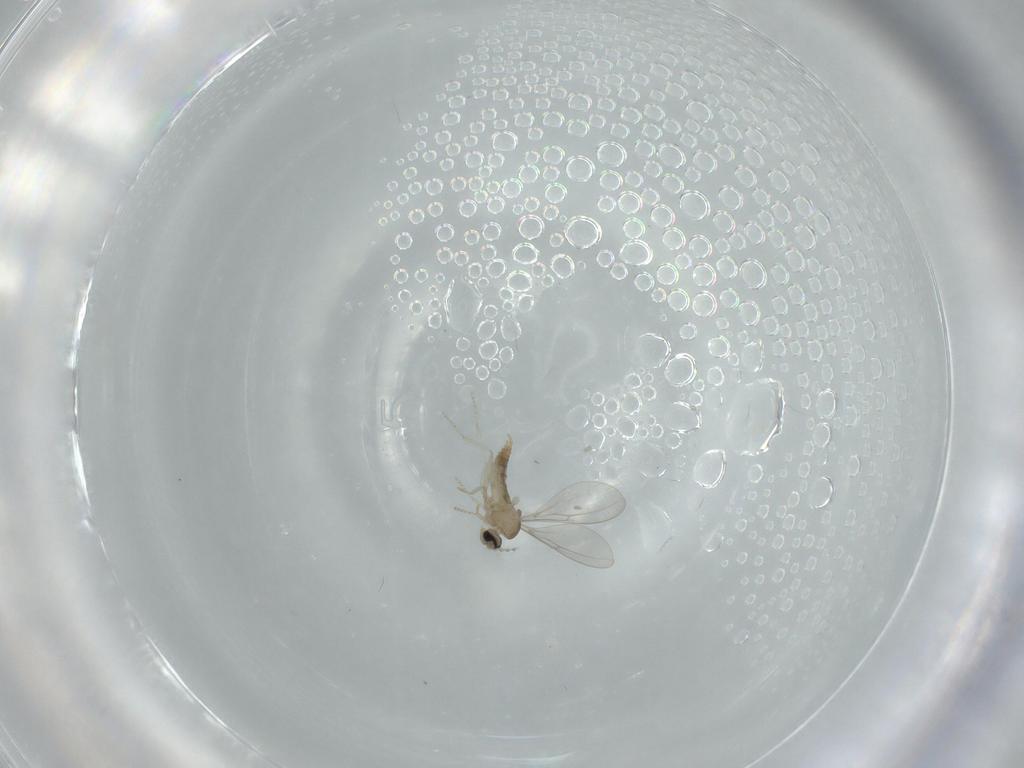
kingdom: Animalia
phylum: Arthropoda
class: Insecta
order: Diptera
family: Cecidomyiidae
